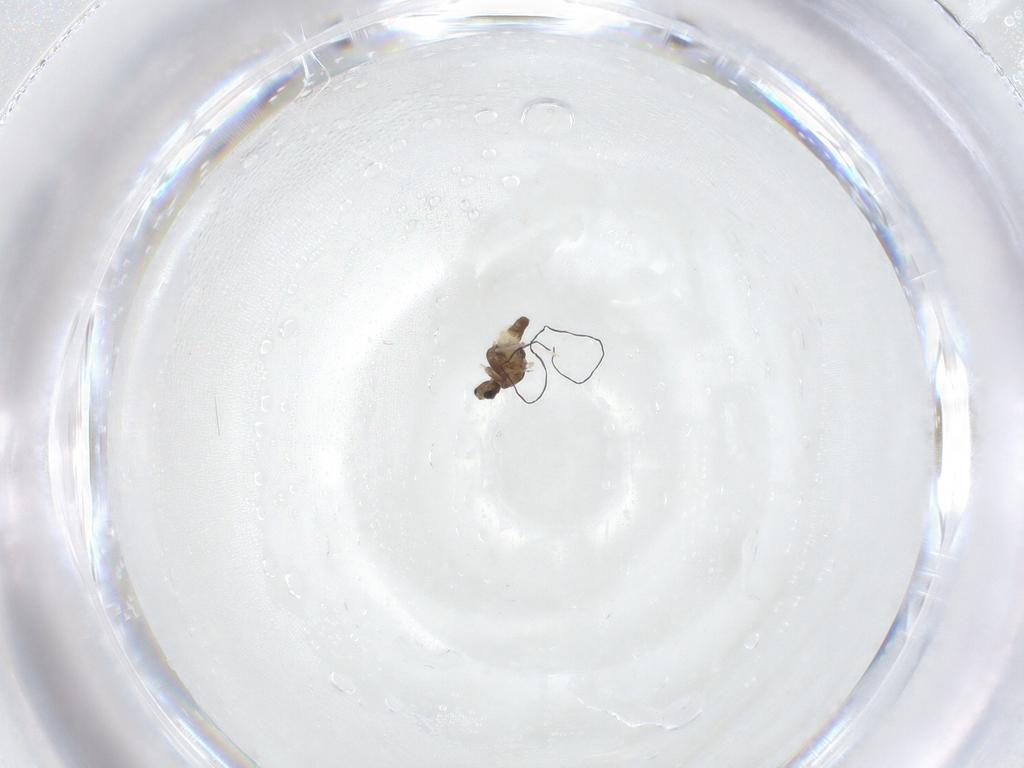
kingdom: Animalia
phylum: Arthropoda
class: Insecta
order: Diptera
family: Chironomidae
